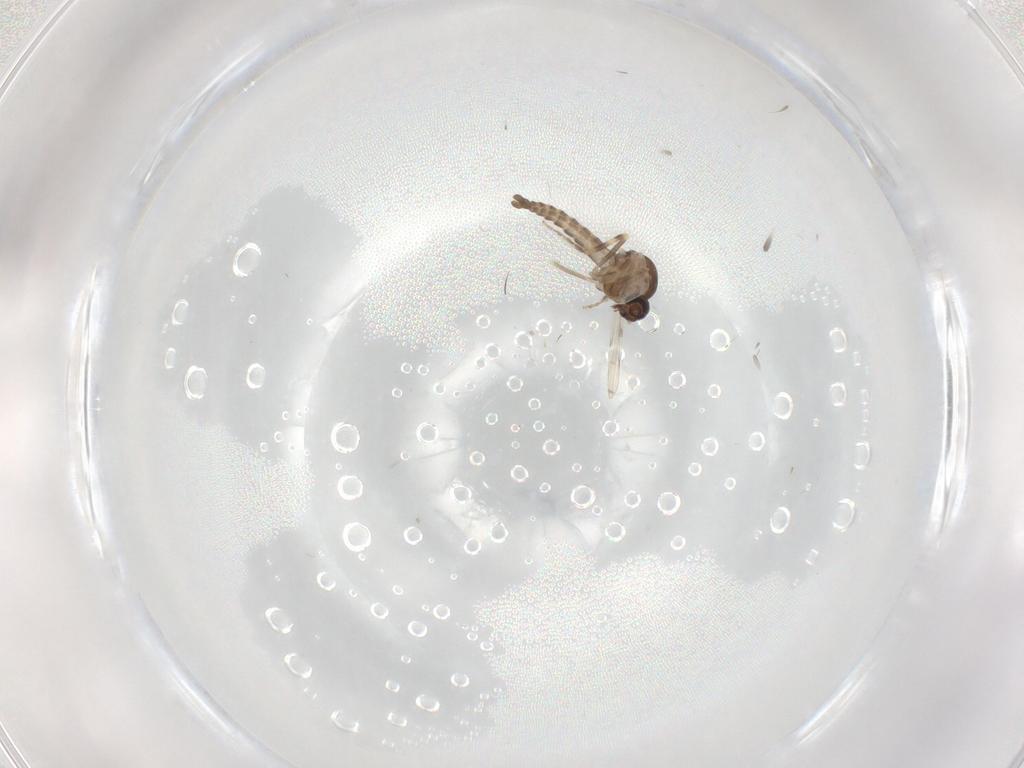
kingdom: Animalia
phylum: Arthropoda
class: Insecta
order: Diptera
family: Ceratopogonidae
